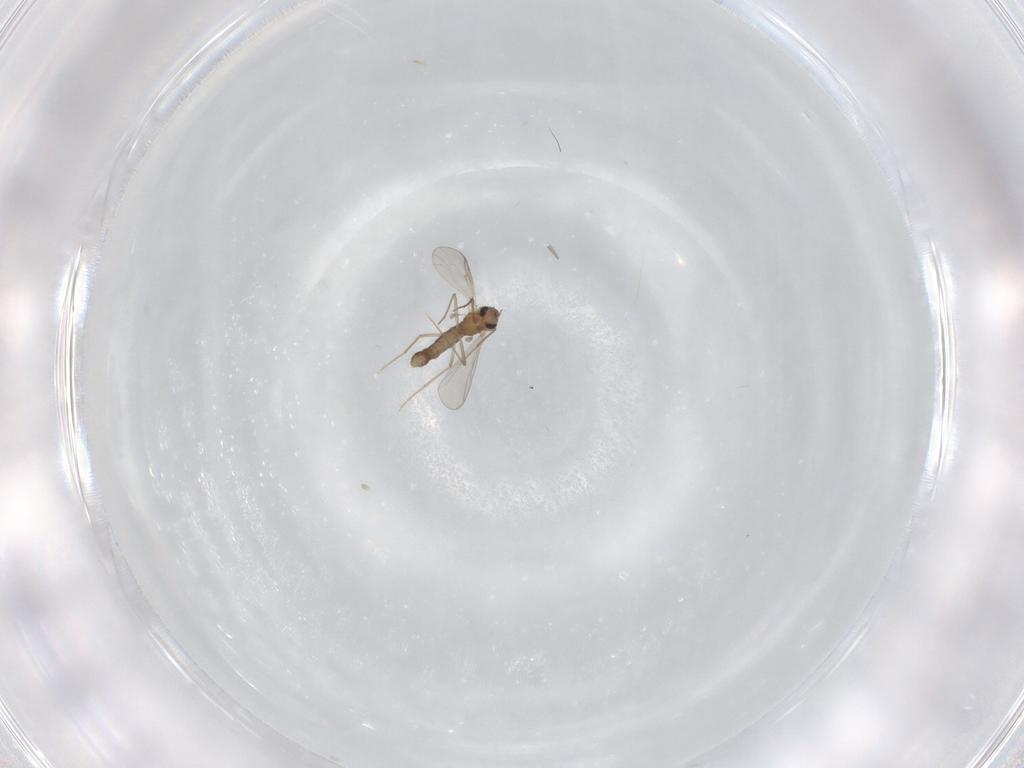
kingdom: Animalia
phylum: Arthropoda
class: Insecta
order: Diptera
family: Chironomidae
